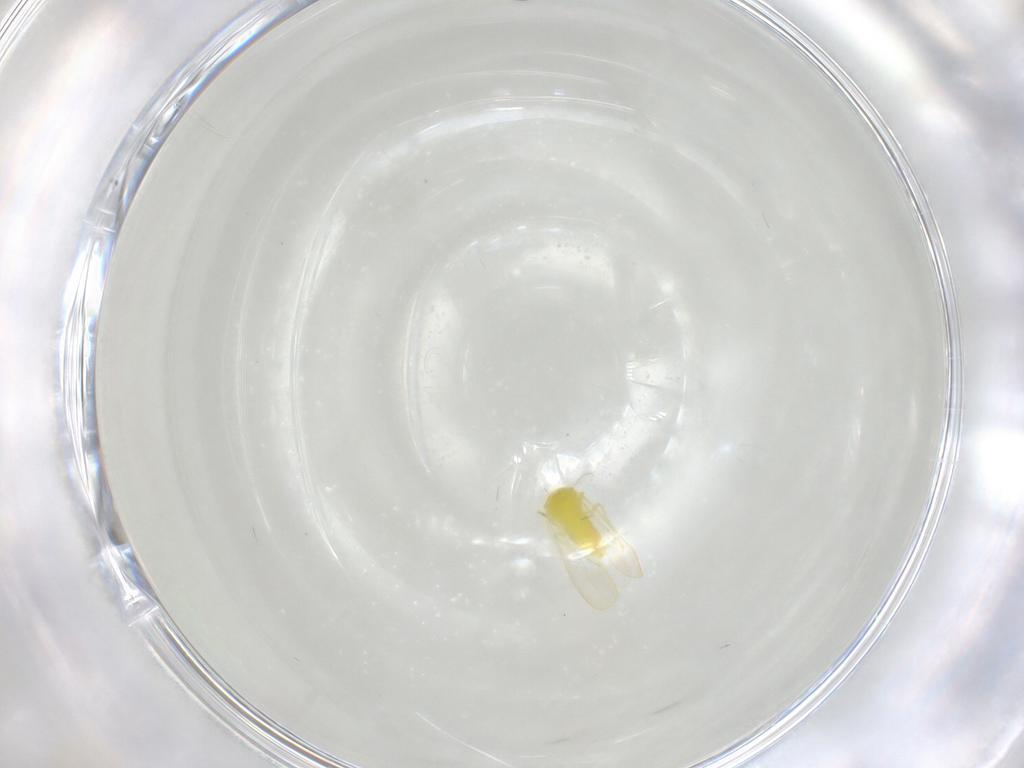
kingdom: Animalia
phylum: Arthropoda
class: Insecta
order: Hemiptera
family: Aleyrodidae
